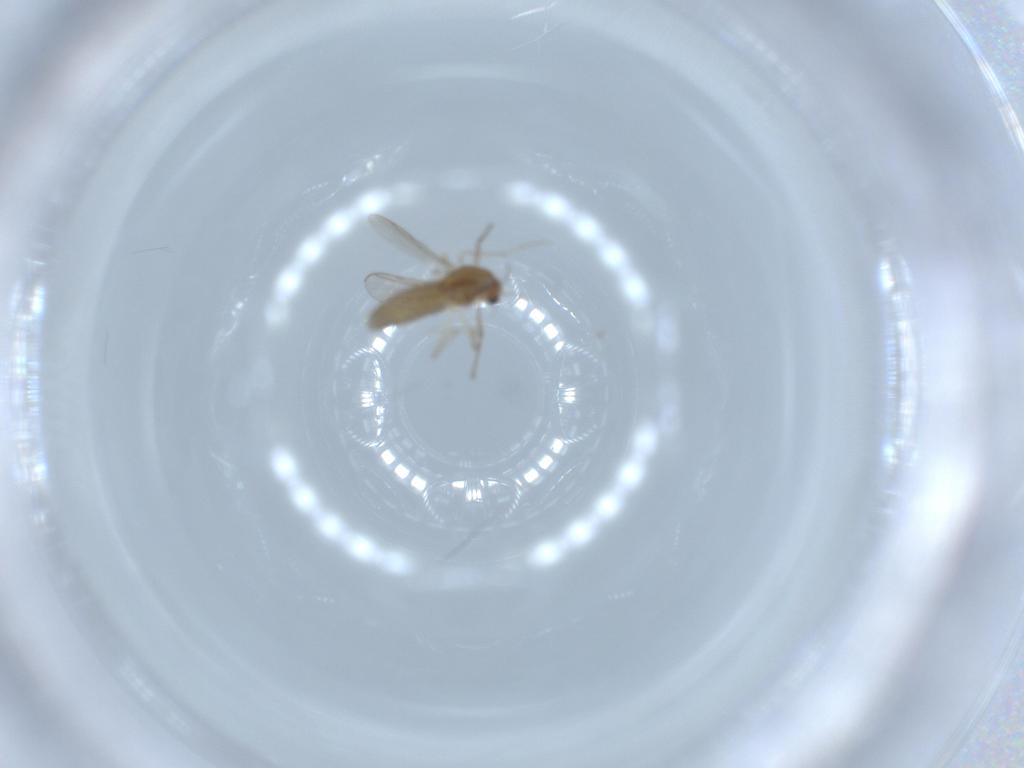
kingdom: Animalia
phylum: Arthropoda
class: Insecta
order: Diptera
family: Chironomidae
